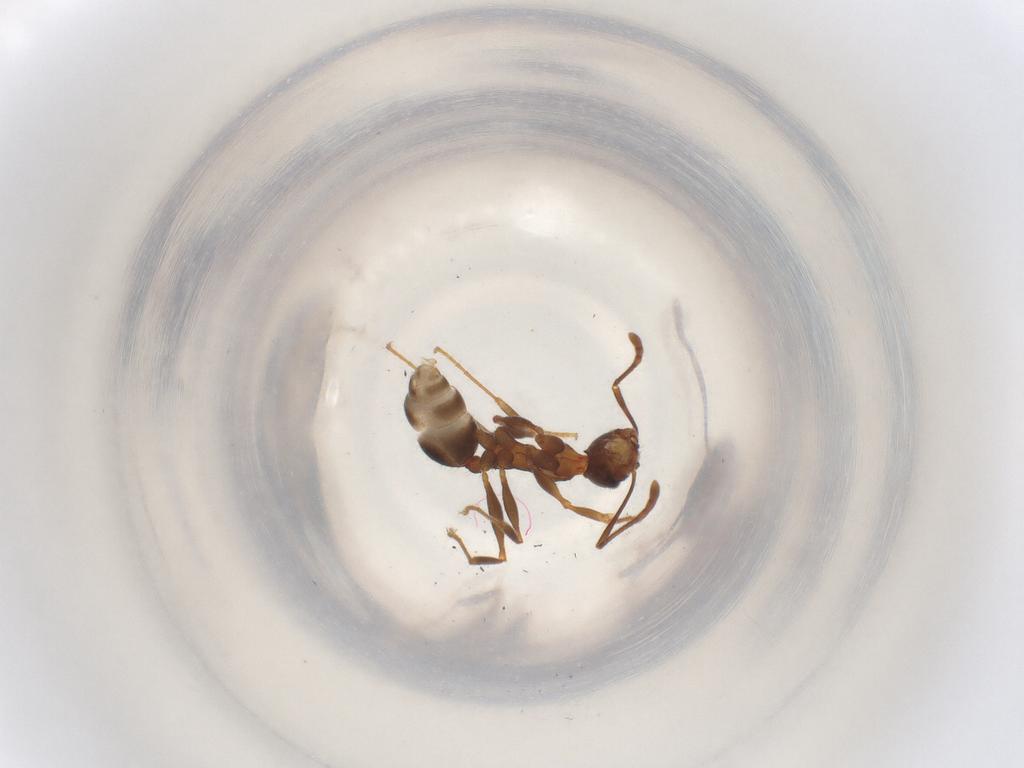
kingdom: Animalia
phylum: Arthropoda
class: Insecta
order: Hymenoptera
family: Formicidae
